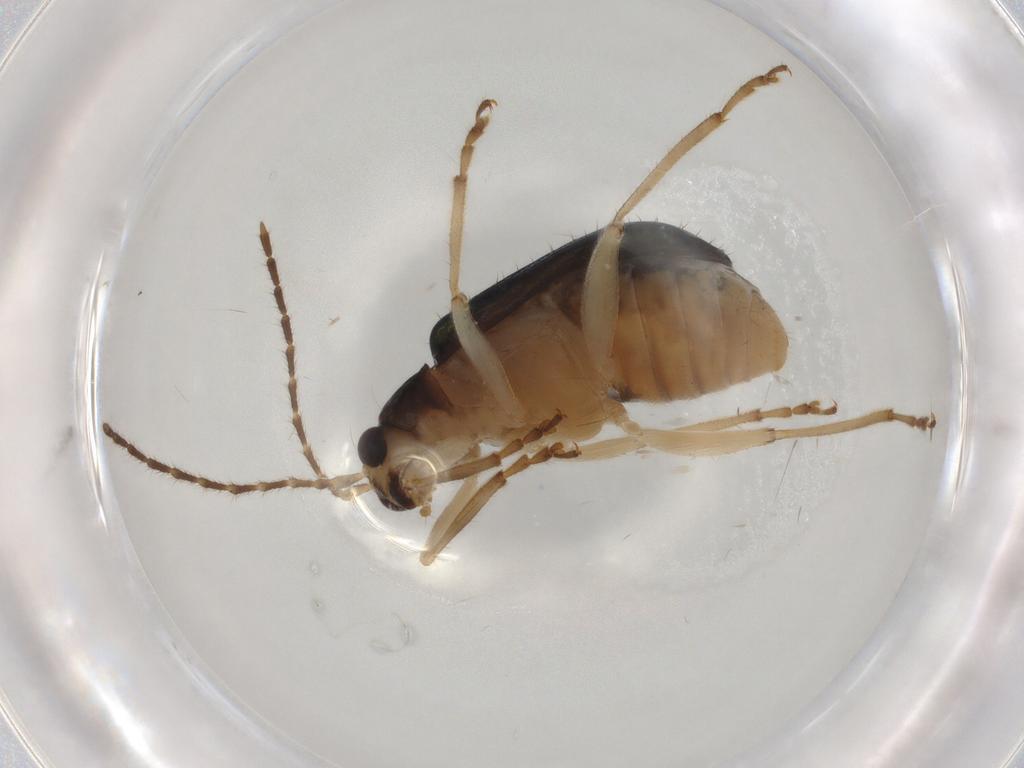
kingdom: Animalia
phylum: Arthropoda
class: Insecta
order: Coleoptera
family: Chrysomelidae
